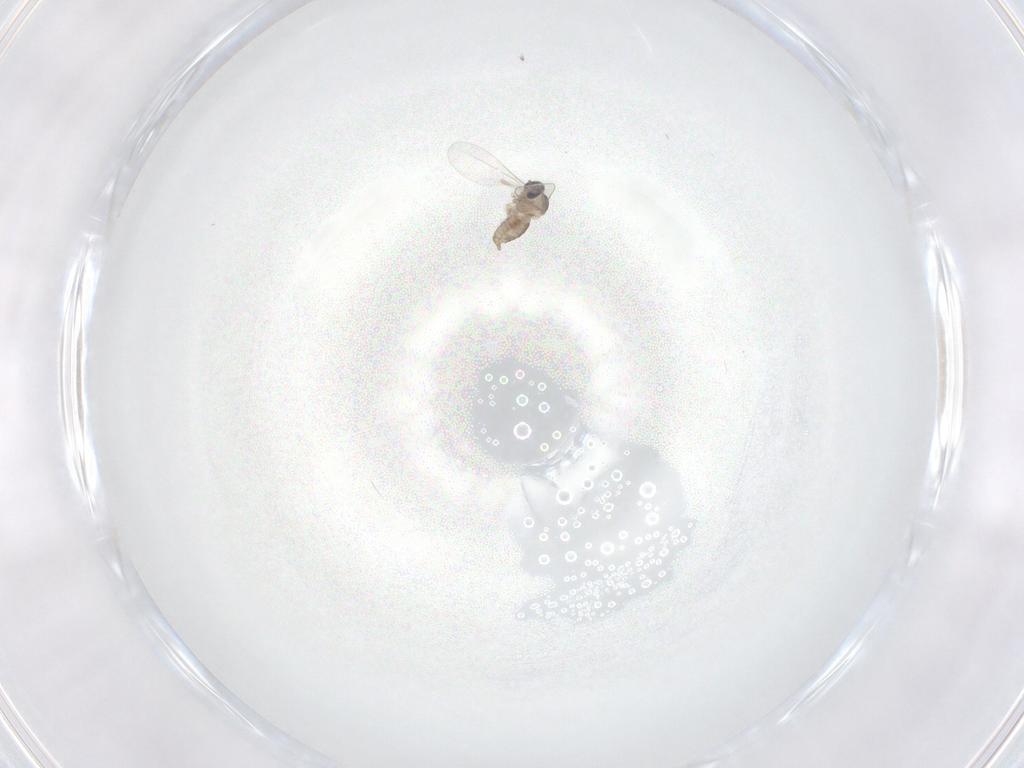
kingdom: Animalia
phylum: Arthropoda
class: Insecta
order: Diptera
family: Cecidomyiidae
